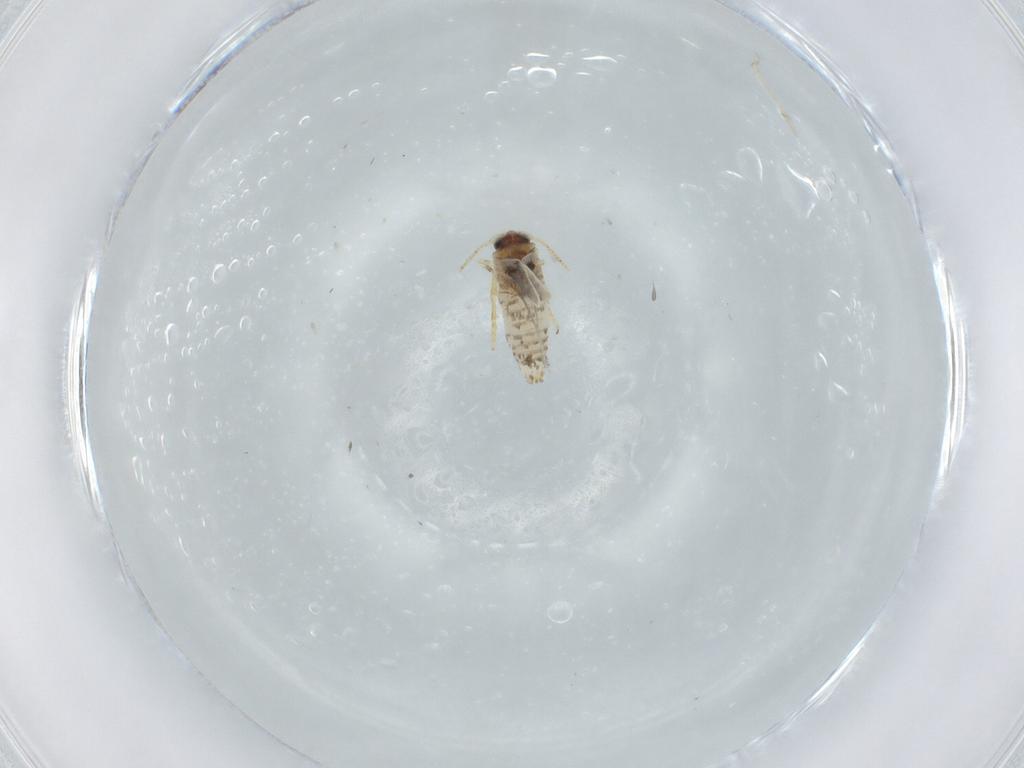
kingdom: Animalia
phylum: Arthropoda
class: Insecta
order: Lepidoptera
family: Copromorphidae
